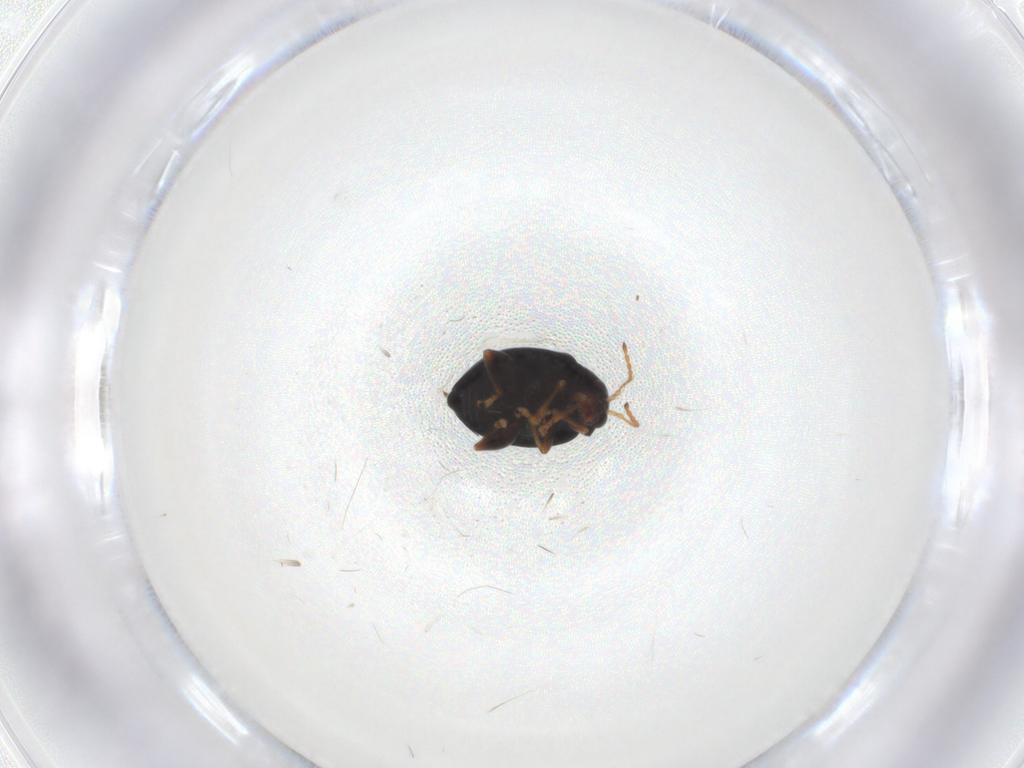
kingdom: Animalia
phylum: Arthropoda
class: Insecta
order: Coleoptera
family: Chrysomelidae
